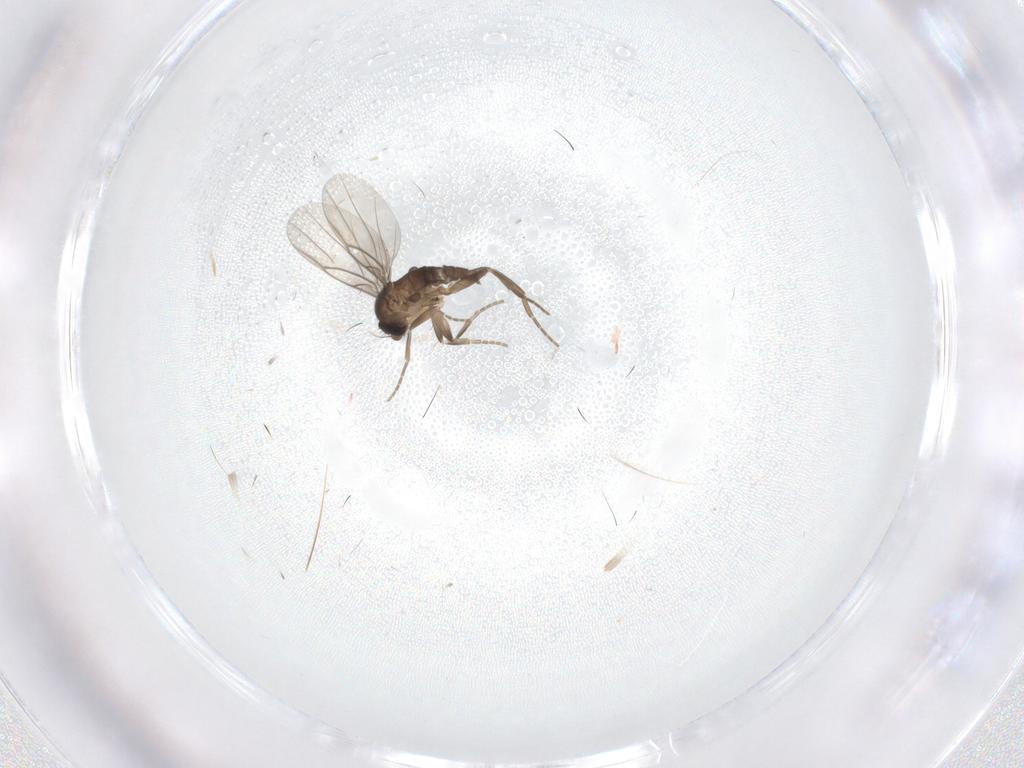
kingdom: Animalia
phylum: Arthropoda
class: Insecta
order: Diptera
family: Phoridae
